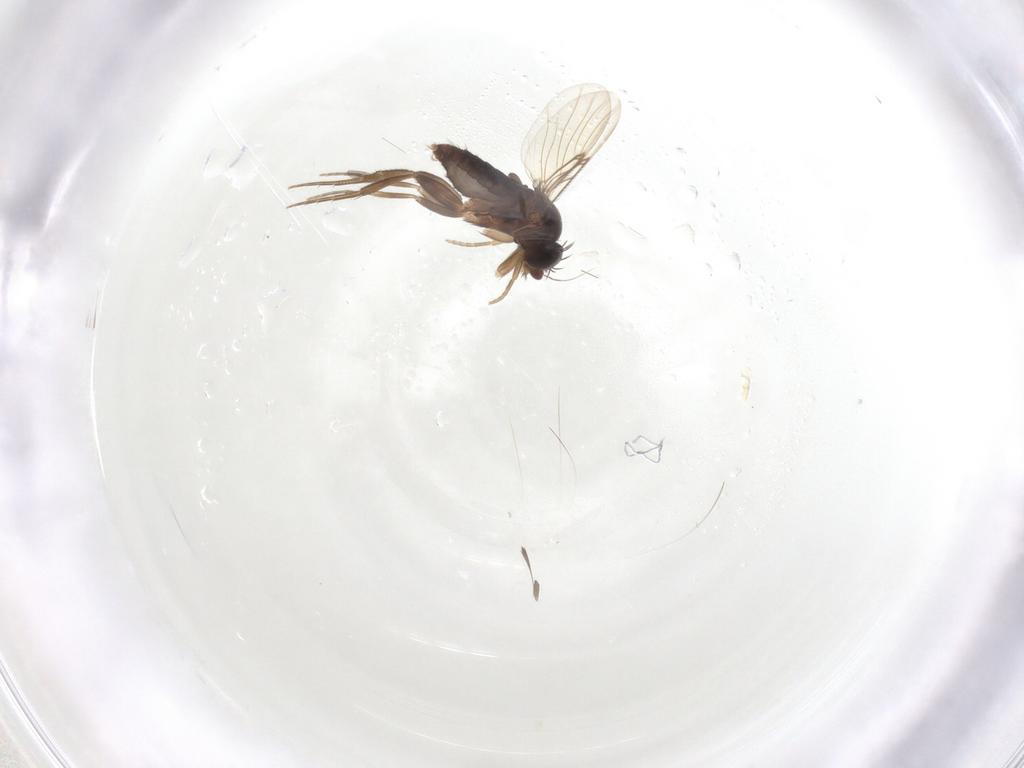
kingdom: Animalia
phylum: Arthropoda
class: Insecta
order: Diptera
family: Phoridae
